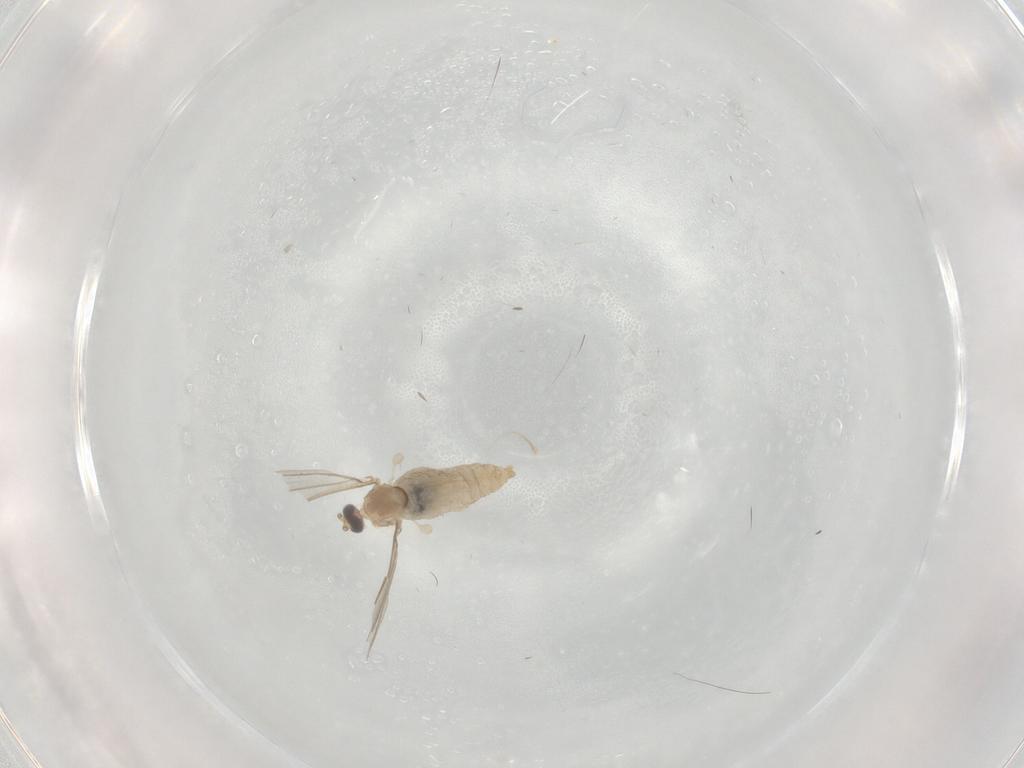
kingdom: Animalia
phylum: Arthropoda
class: Insecta
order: Diptera
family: Cecidomyiidae
